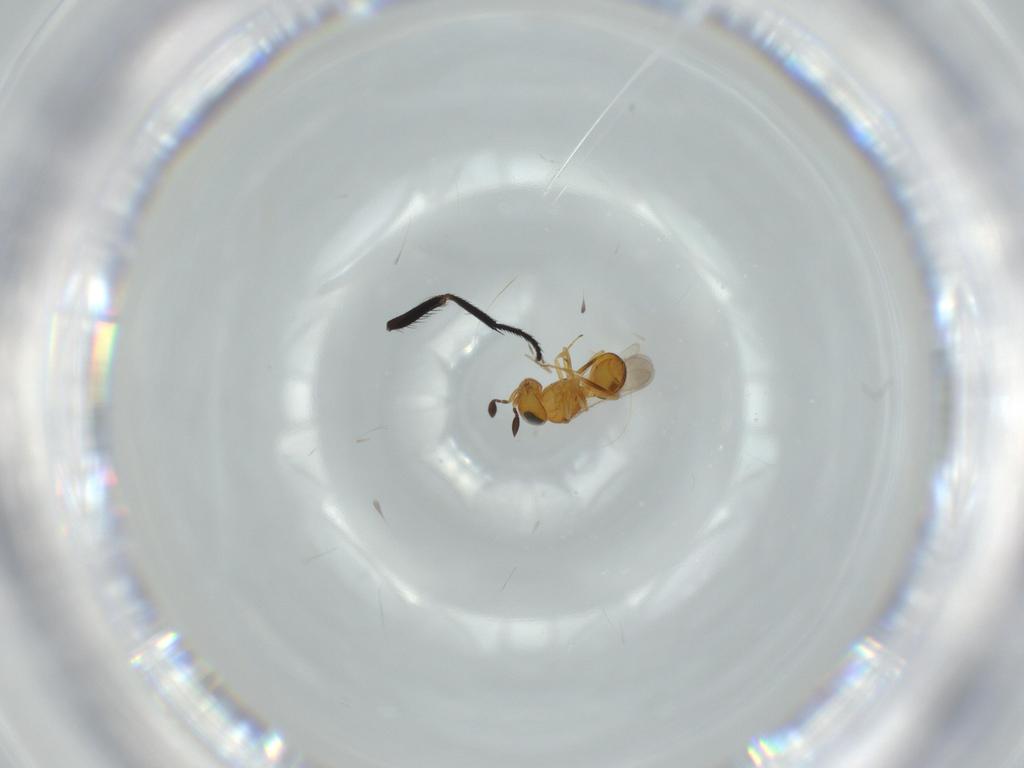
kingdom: Animalia
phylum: Arthropoda
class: Insecta
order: Hymenoptera
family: Scelionidae
